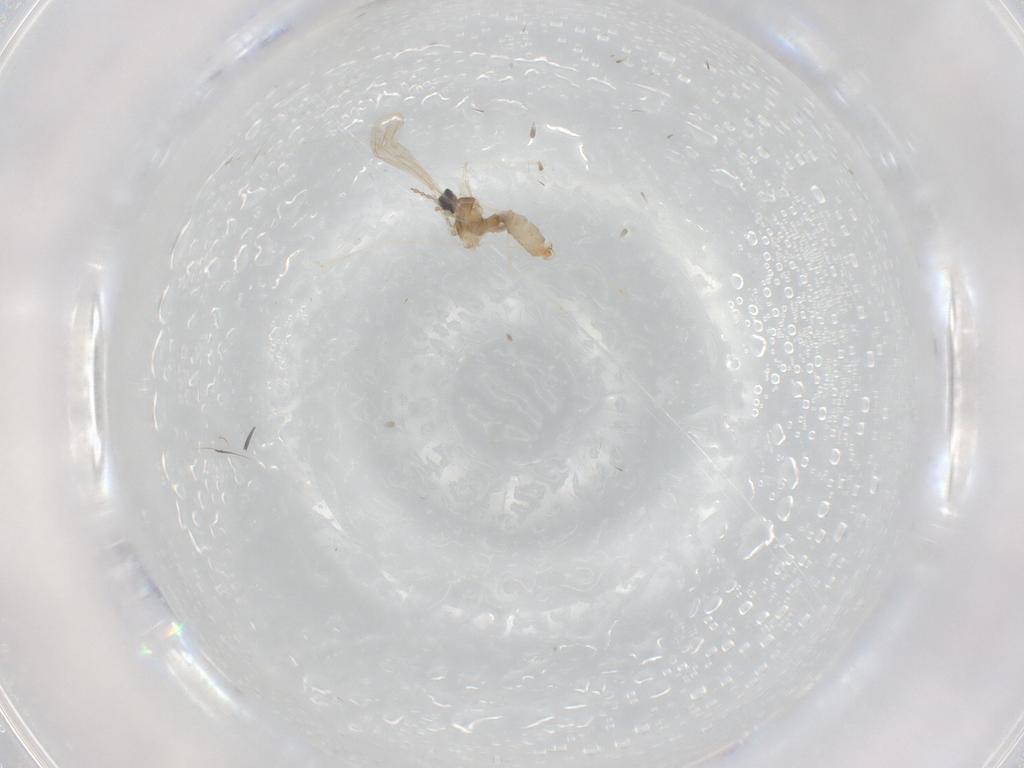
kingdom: Animalia
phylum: Arthropoda
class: Insecta
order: Diptera
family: Cecidomyiidae
